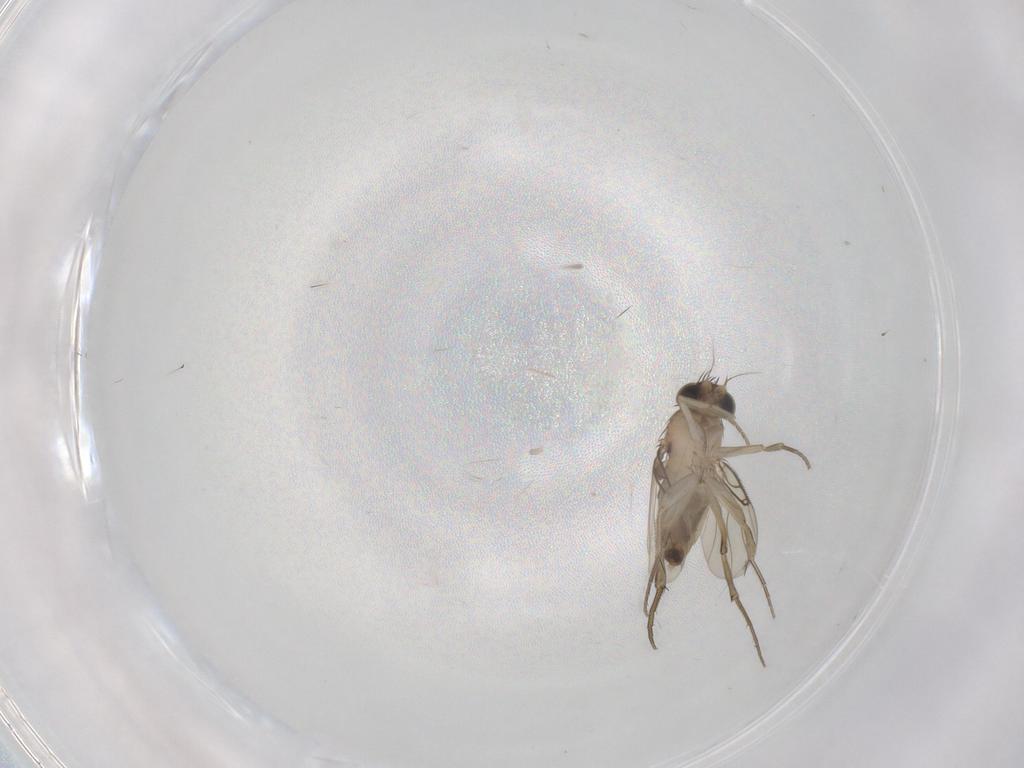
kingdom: Animalia
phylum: Arthropoda
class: Insecta
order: Diptera
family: Phoridae
